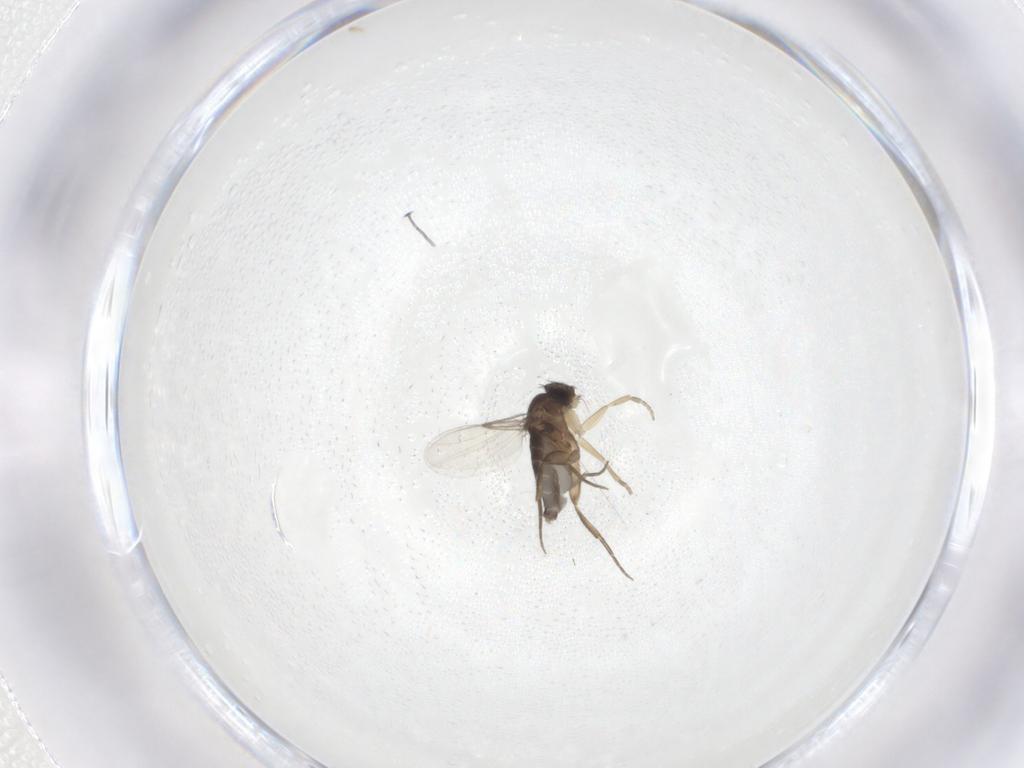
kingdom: Animalia
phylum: Arthropoda
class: Insecta
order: Diptera
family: Phoridae
